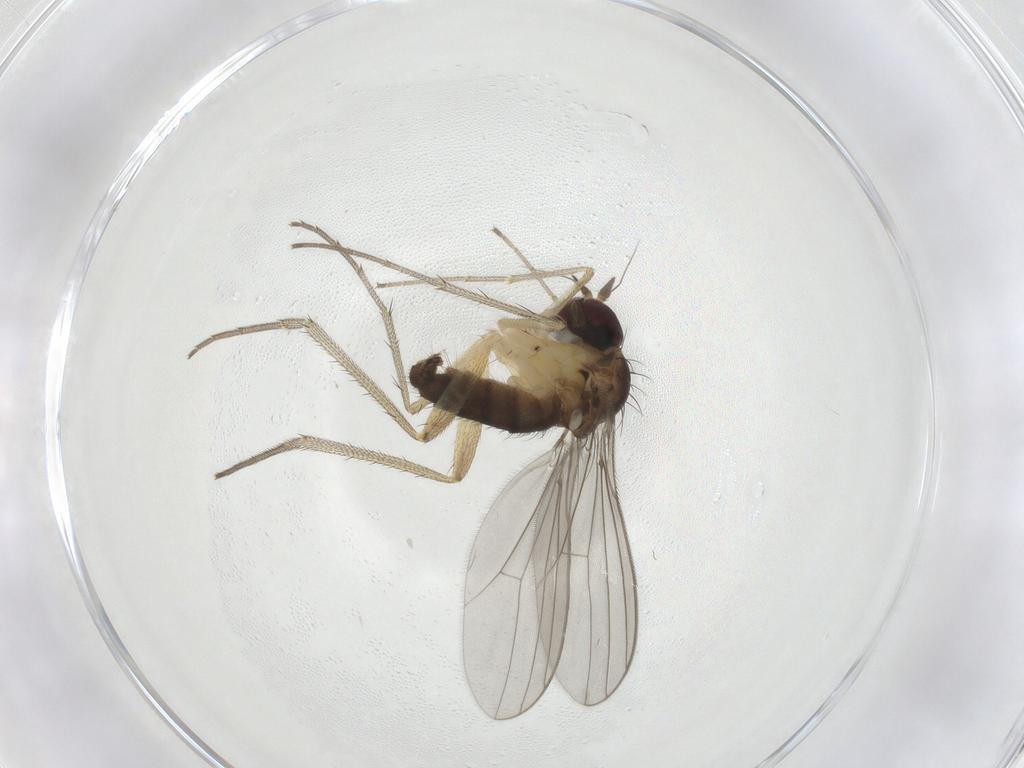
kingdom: Animalia
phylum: Arthropoda
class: Insecta
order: Diptera
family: Dolichopodidae
